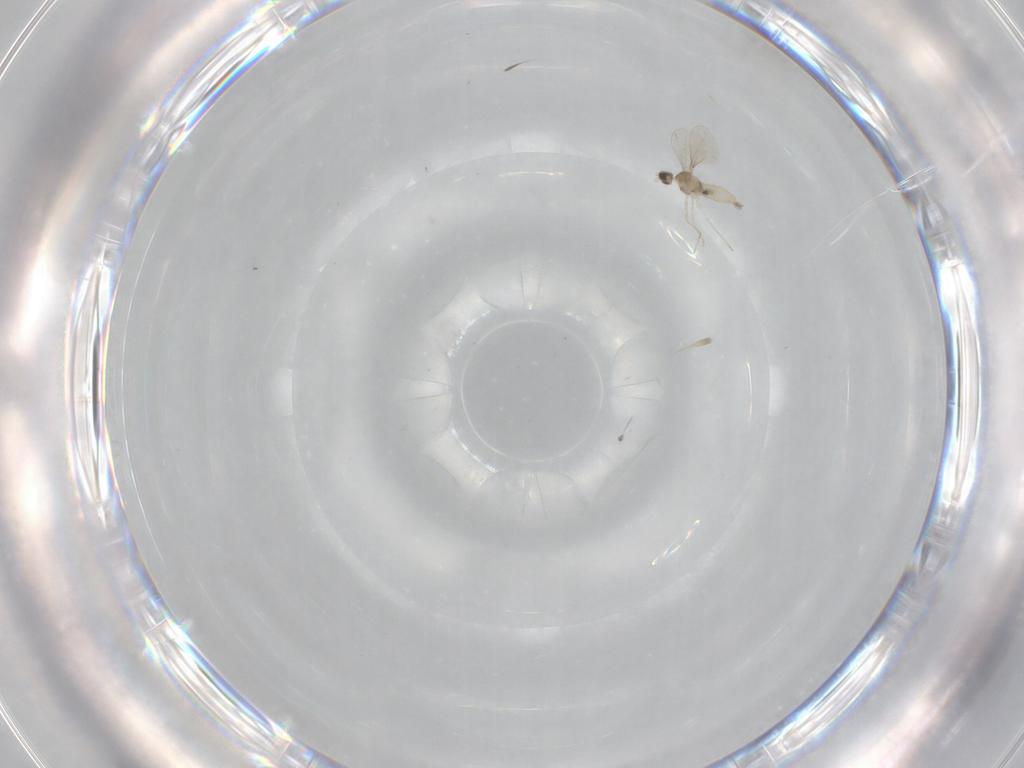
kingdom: Animalia
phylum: Arthropoda
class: Insecta
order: Diptera
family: Cecidomyiidae
